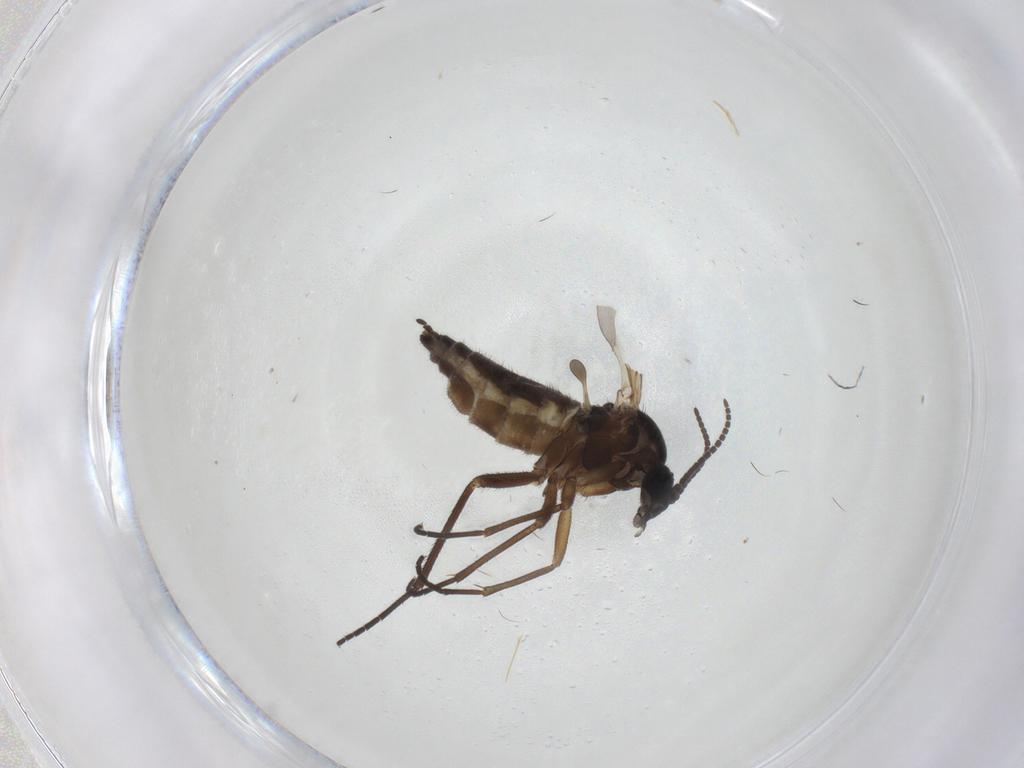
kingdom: Animalia
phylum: Arthropoda
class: Insecta
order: Diptera
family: Sciaridae
